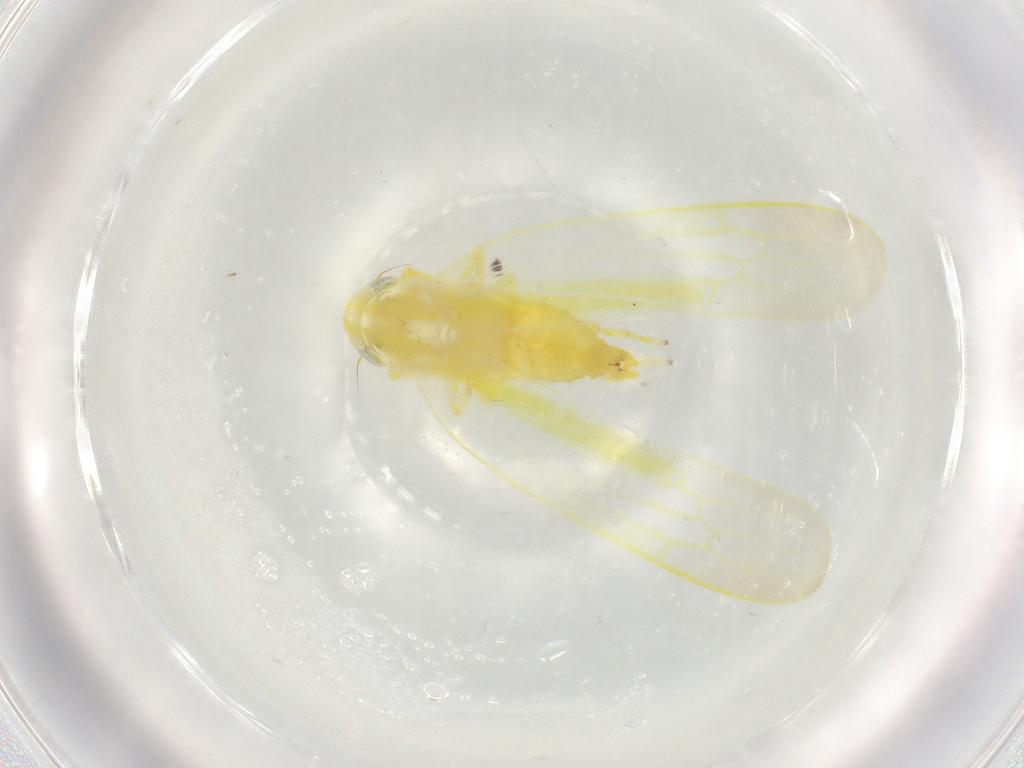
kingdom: Animalia
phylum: Arthropoda
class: Insecta
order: Hemiptera
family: Cicadellidae
